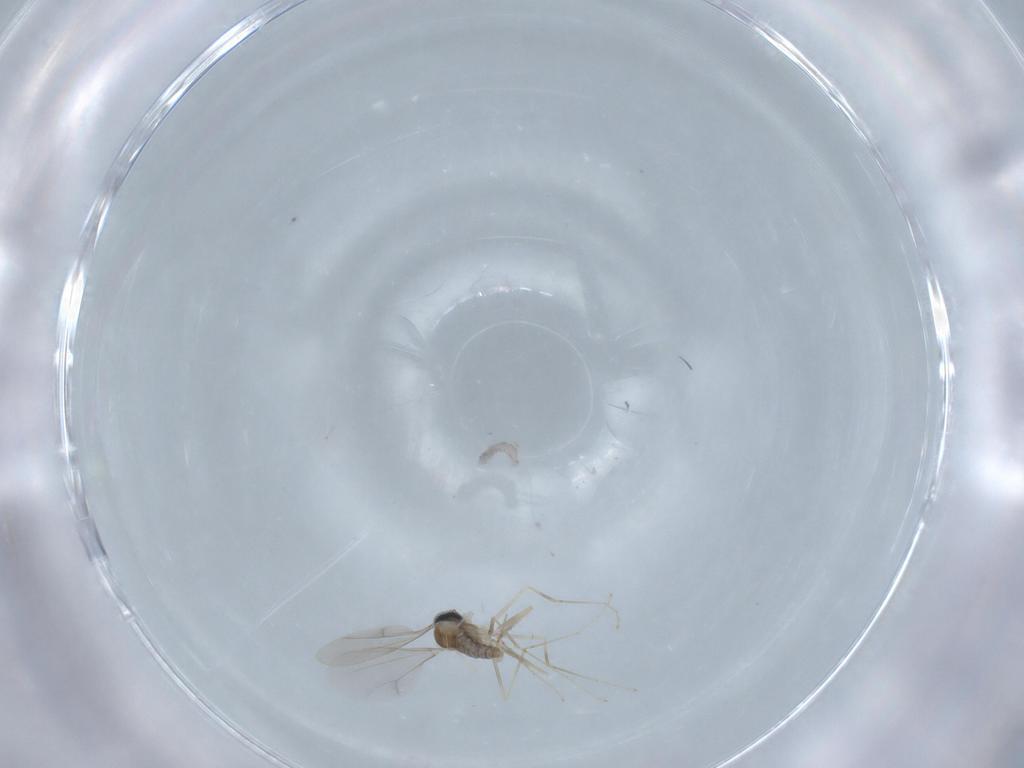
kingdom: Animalia
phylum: Arthropoda
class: Insecta
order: Diptera
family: Cecidomyiidae
